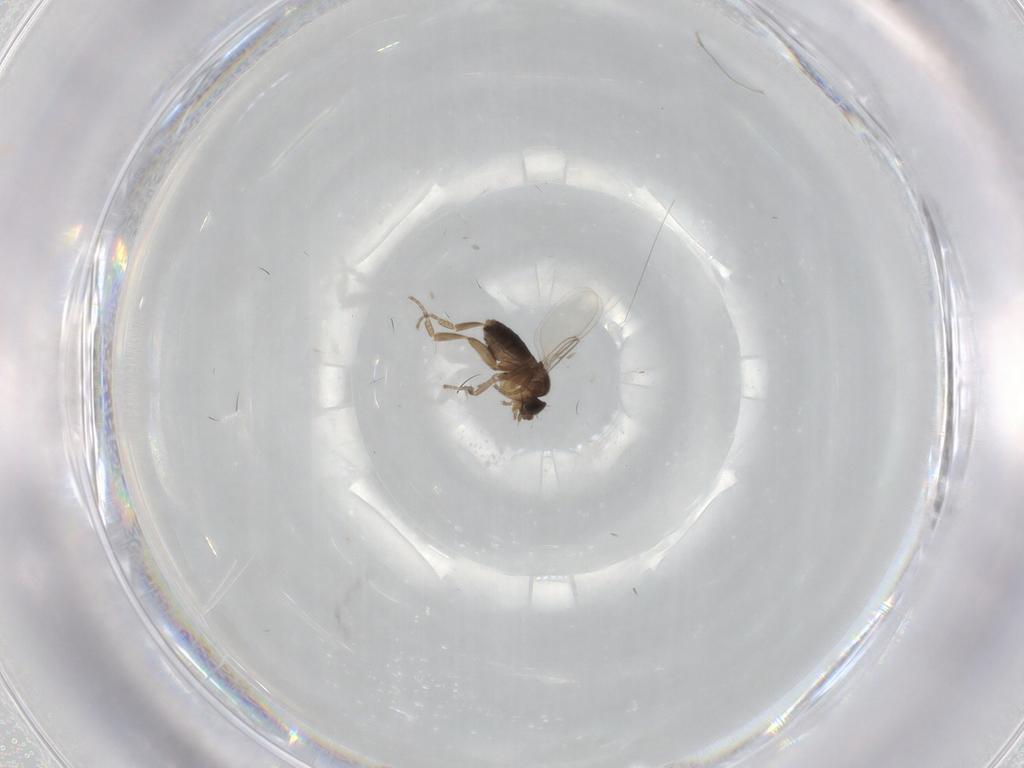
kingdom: Animalia
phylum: Arthropoda
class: Insecta
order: Diptera
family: Phoridae
